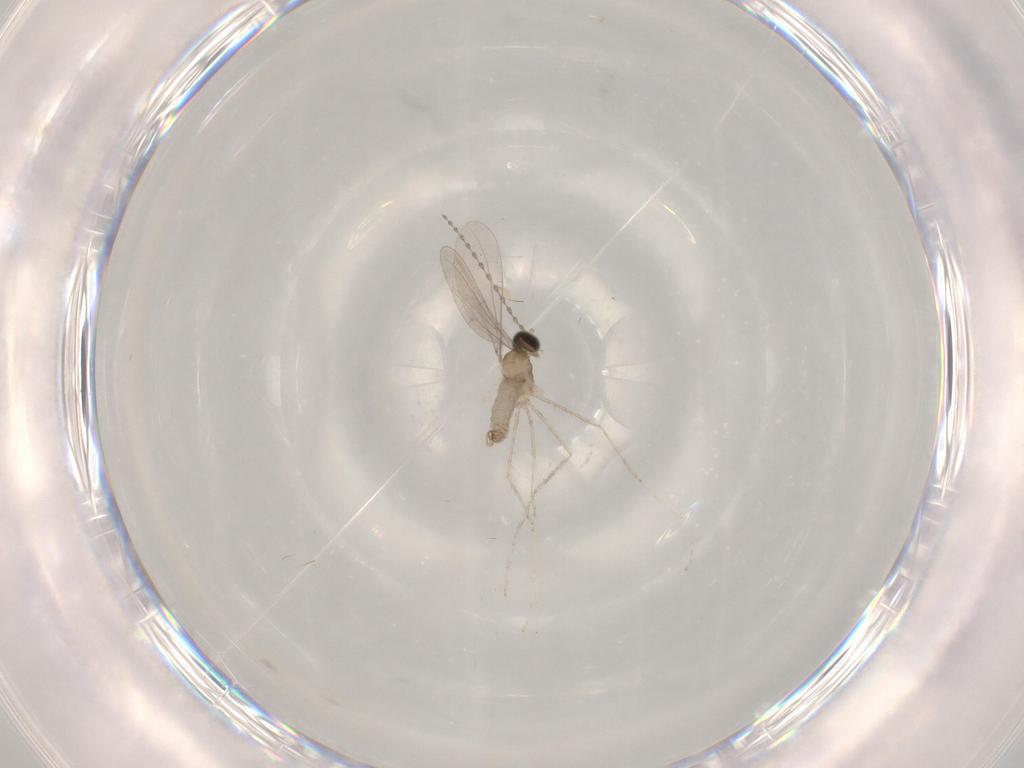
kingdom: Animalia
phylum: Arthropoda
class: Insecta
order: Diptera
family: Chironomidae
